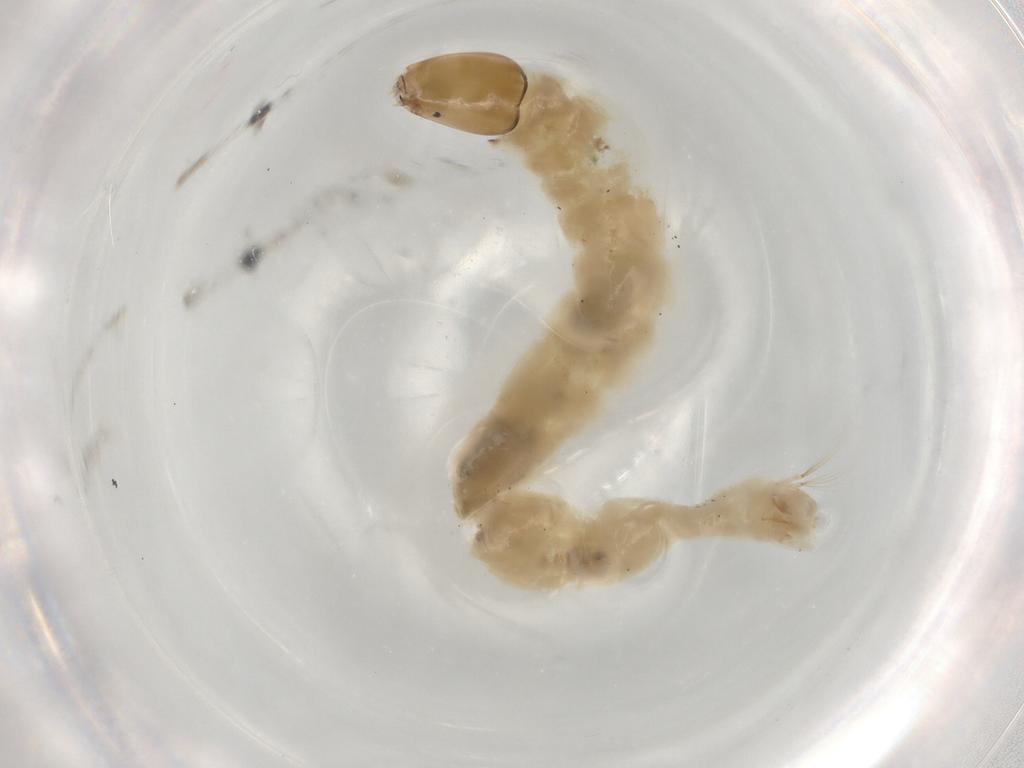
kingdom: Animalia
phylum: Arthropoda
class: Insecta
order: Diptera
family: Chironomidae
